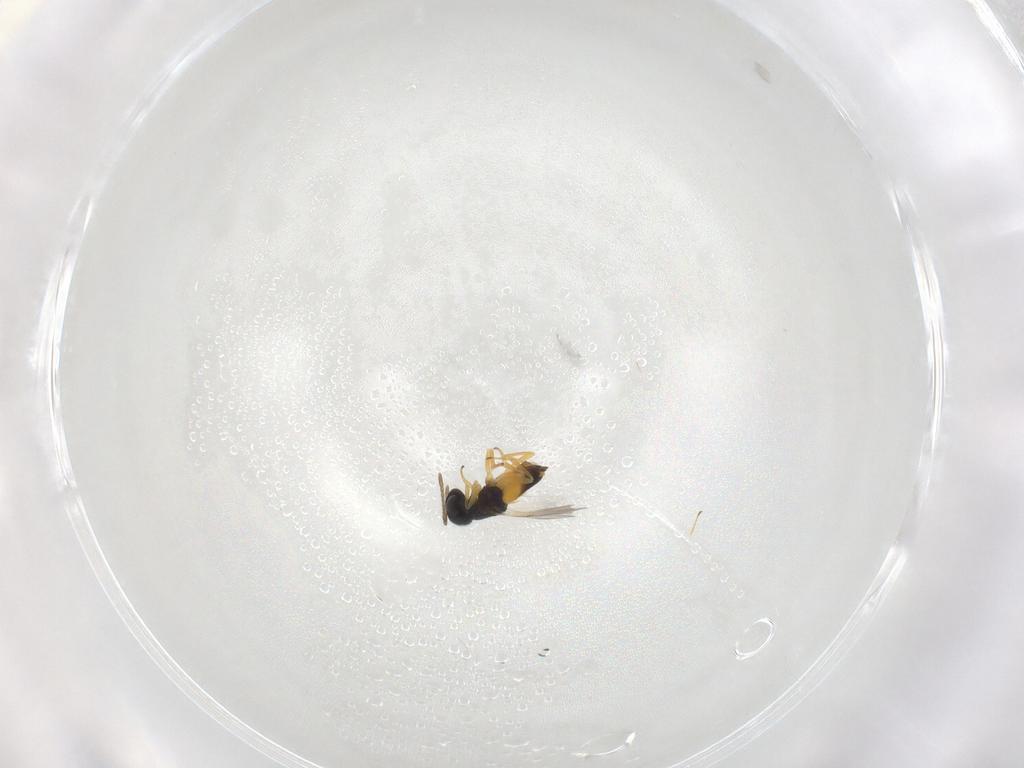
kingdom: Animalia
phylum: Arthropoda
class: Insecta
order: Hymenoptera
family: Encyrtidae
